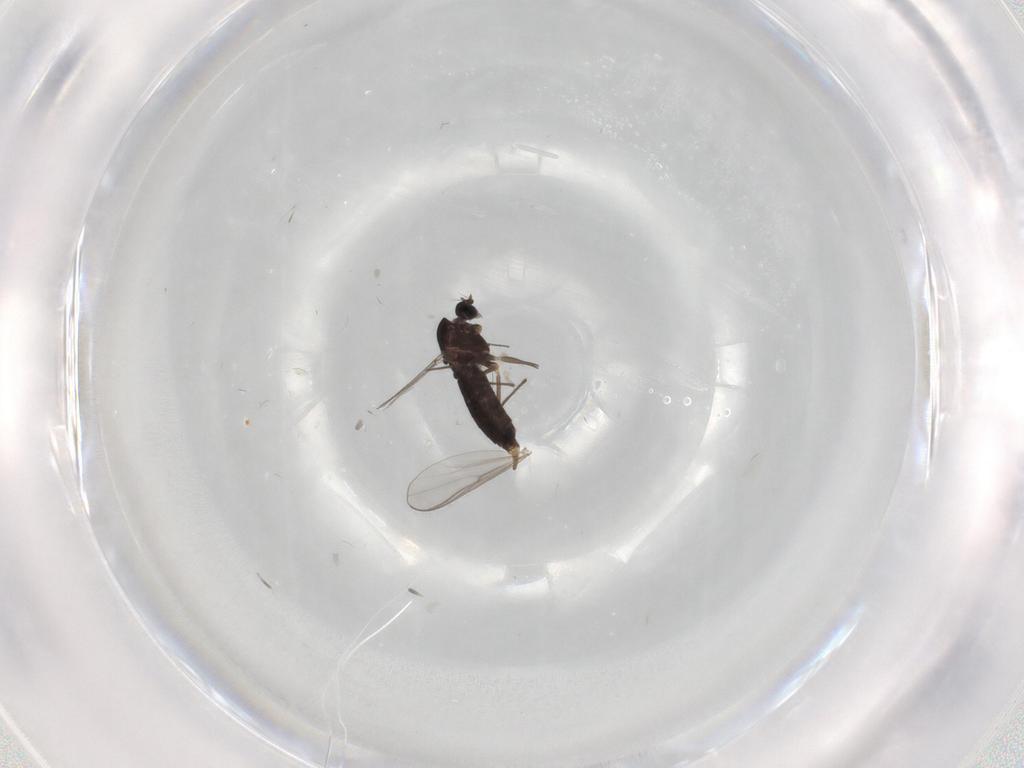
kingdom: Animalia
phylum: Arthropoda
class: Insecta
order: Diptera
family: Chironomidae
